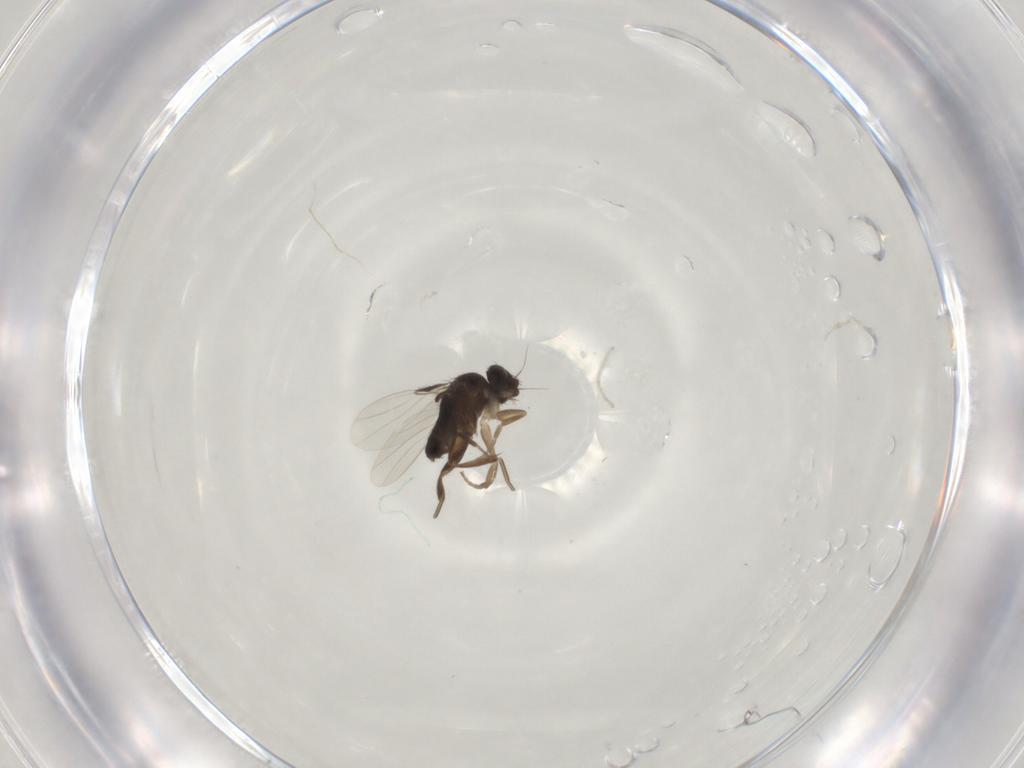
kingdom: Animalia
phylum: Arthropoda
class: Insecta
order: Diptera
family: Phoridae
